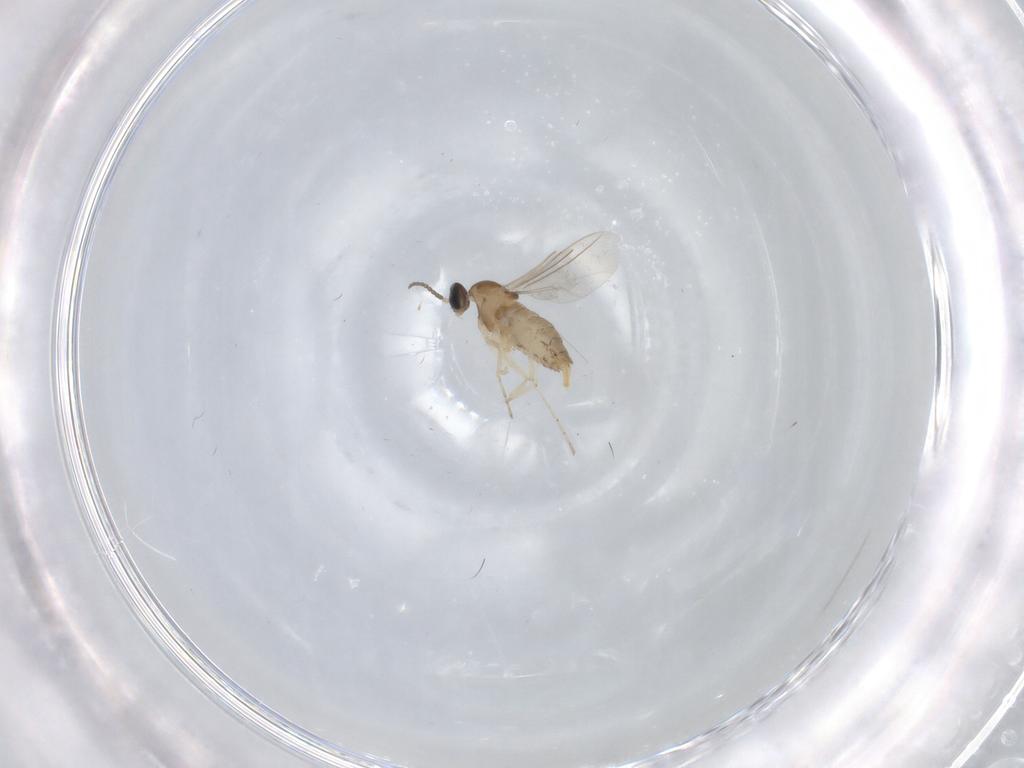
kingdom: Animalia
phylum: Arthropoda
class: Insecta
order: Diptera
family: Cecidomyiidae
